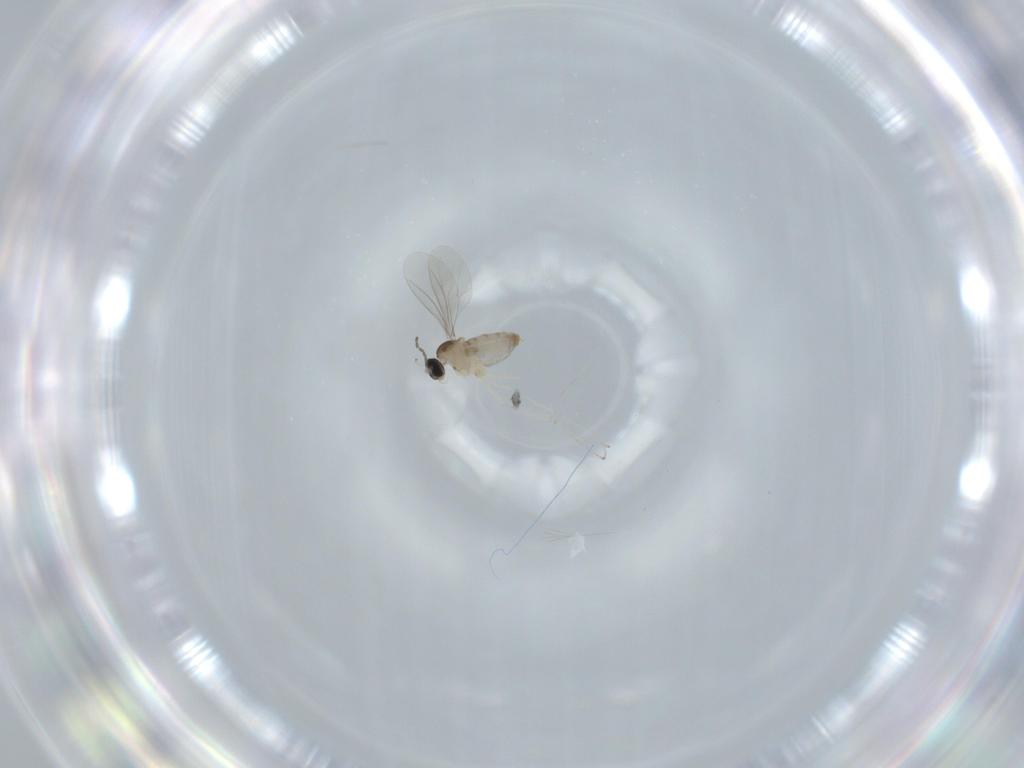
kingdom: Animalia
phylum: Arthropoda
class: Insecta
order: Diptera
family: Cecidomyiidae
